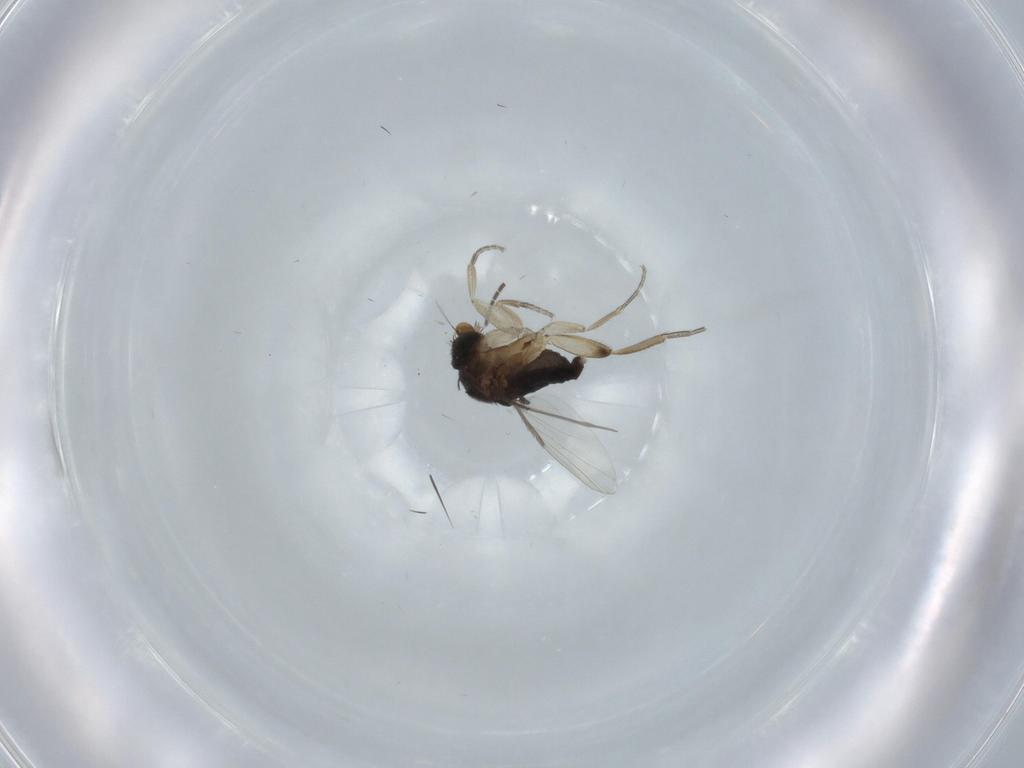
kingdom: Animalia
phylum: Arthropoda
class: Insecta
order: Diptera
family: Phoridae
